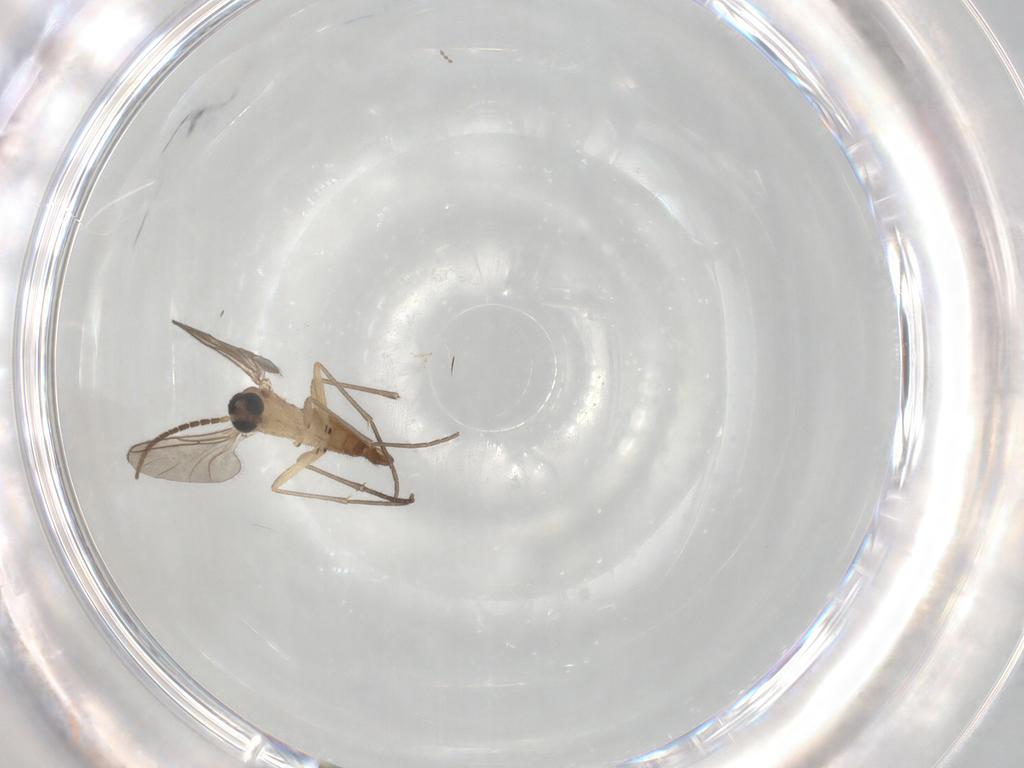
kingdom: Animalia
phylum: Arthropoda
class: Insecta
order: Diptera
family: Sciaridae
